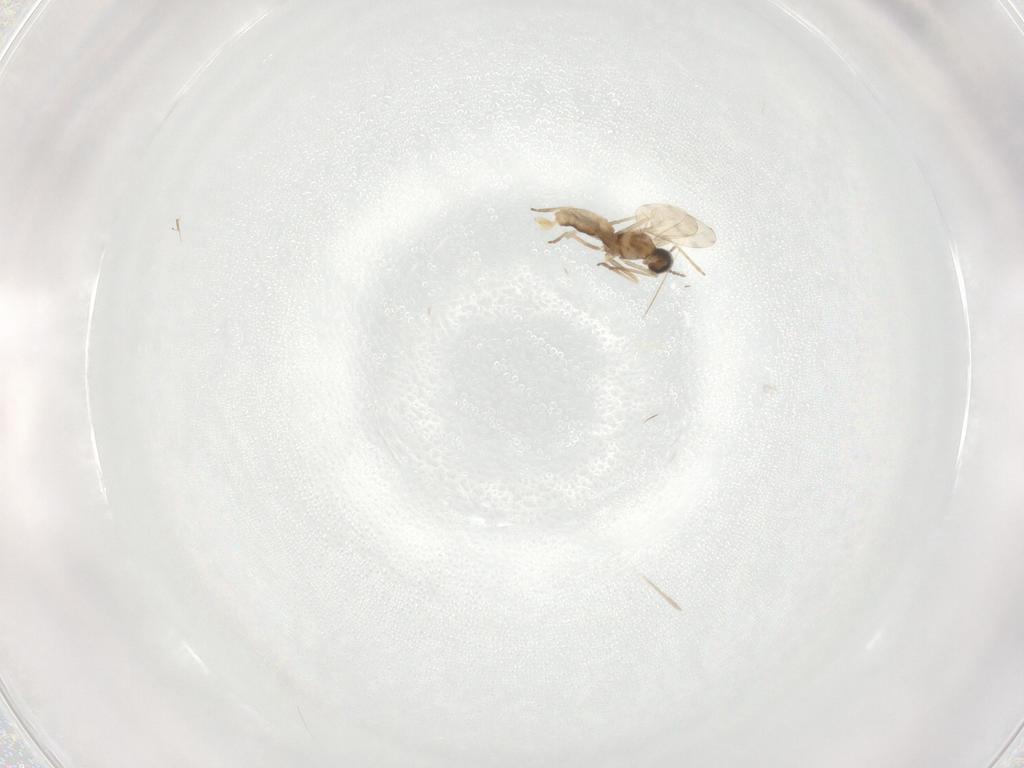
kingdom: Animalia
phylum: Arthropoda
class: Insecta
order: Diptera
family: Cecidomyiidae
